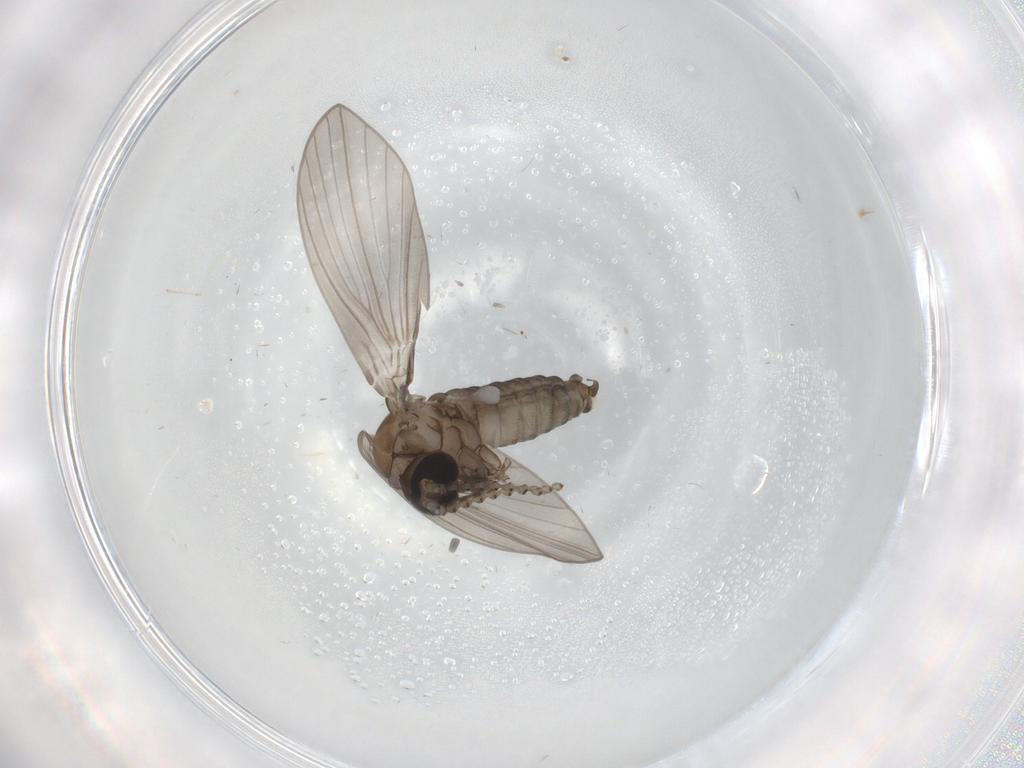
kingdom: Animalia
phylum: Arthropoda
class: Insecta
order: Diptera
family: Psychodidae
